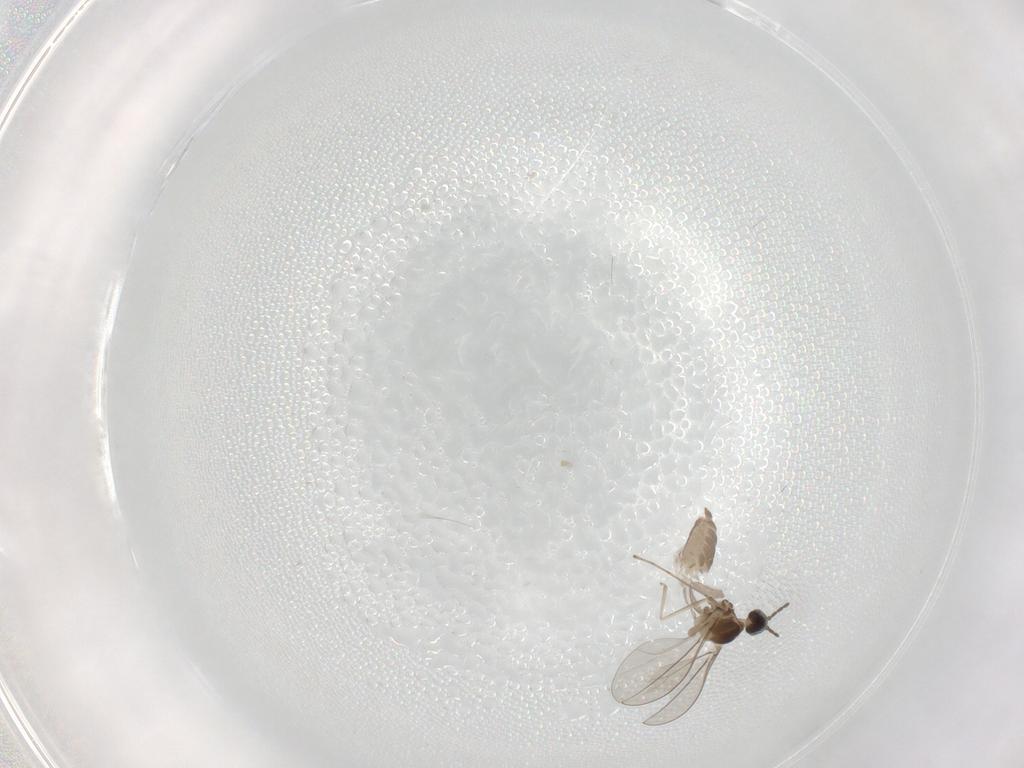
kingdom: Animalia
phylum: Arthropoda
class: Insecta
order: Diptera
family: Cecidomyiidae
